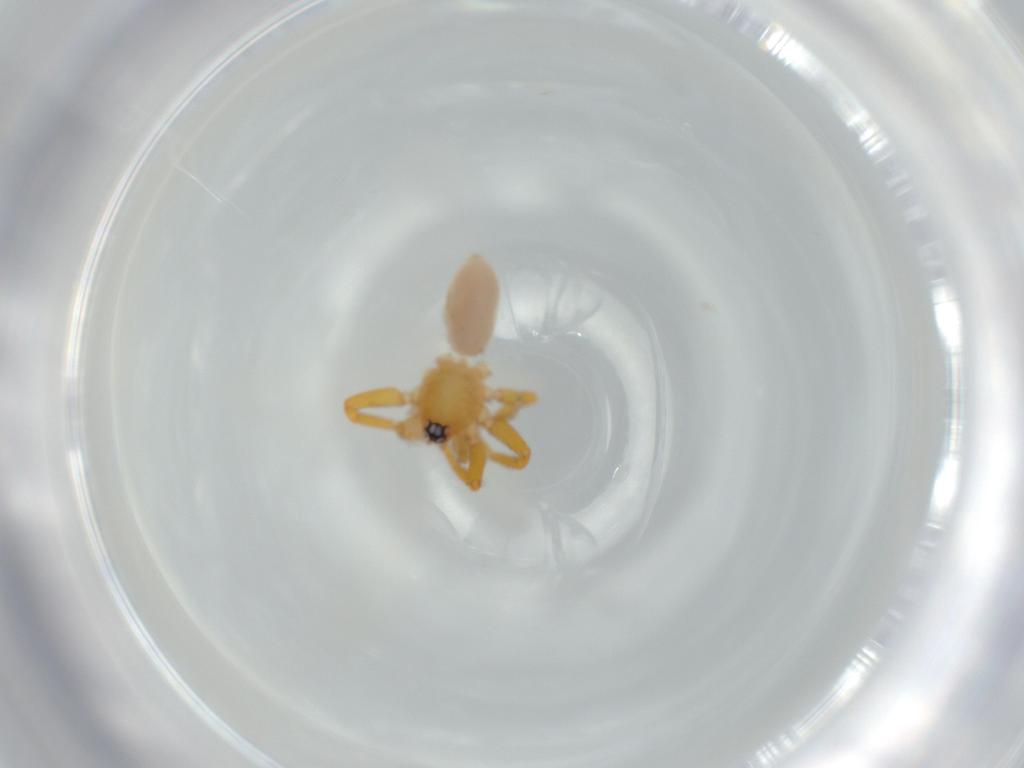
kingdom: Animalia
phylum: Arthropoda
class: Arachnida
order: Araneae
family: Oonopidae
